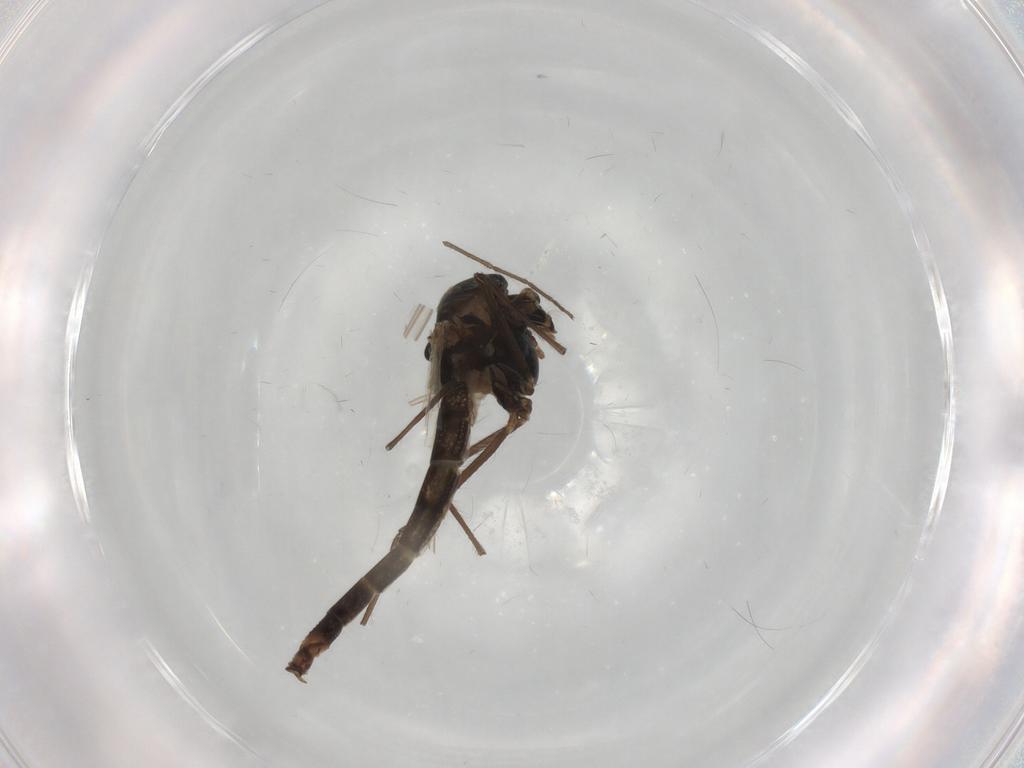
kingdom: Animalia
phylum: Arthropoda
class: Insecta
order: Diptera
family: Chironomidae
